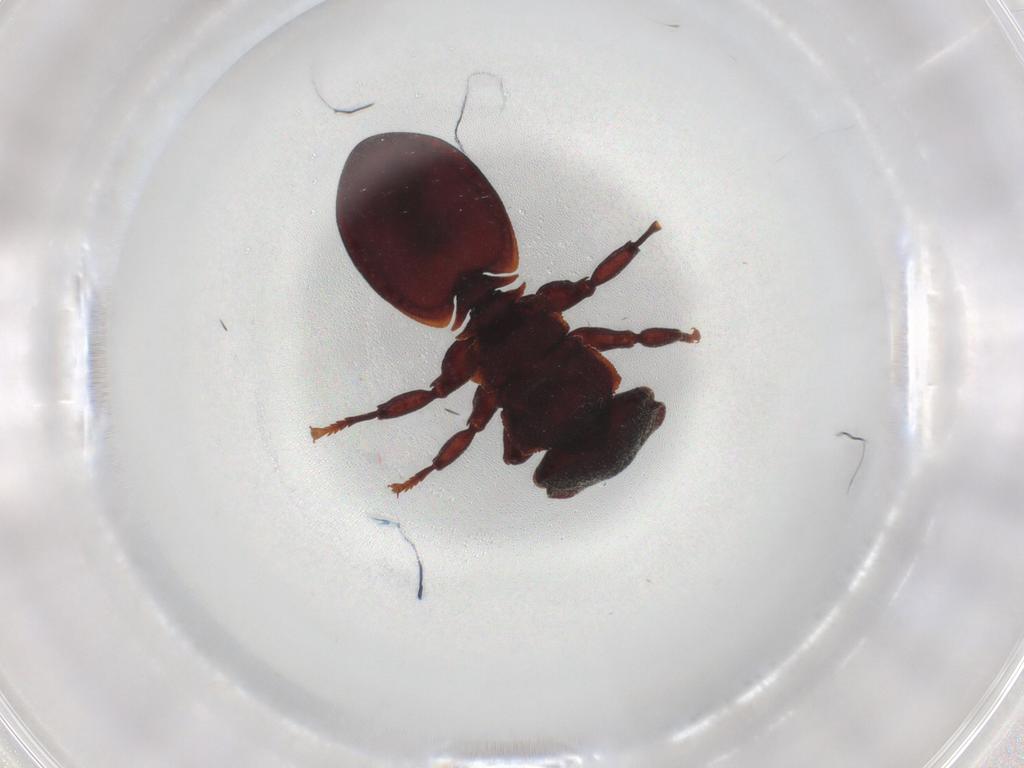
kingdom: Animalia
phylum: Arthropoda
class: Insecta
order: Hymenoptera
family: Formicidae
